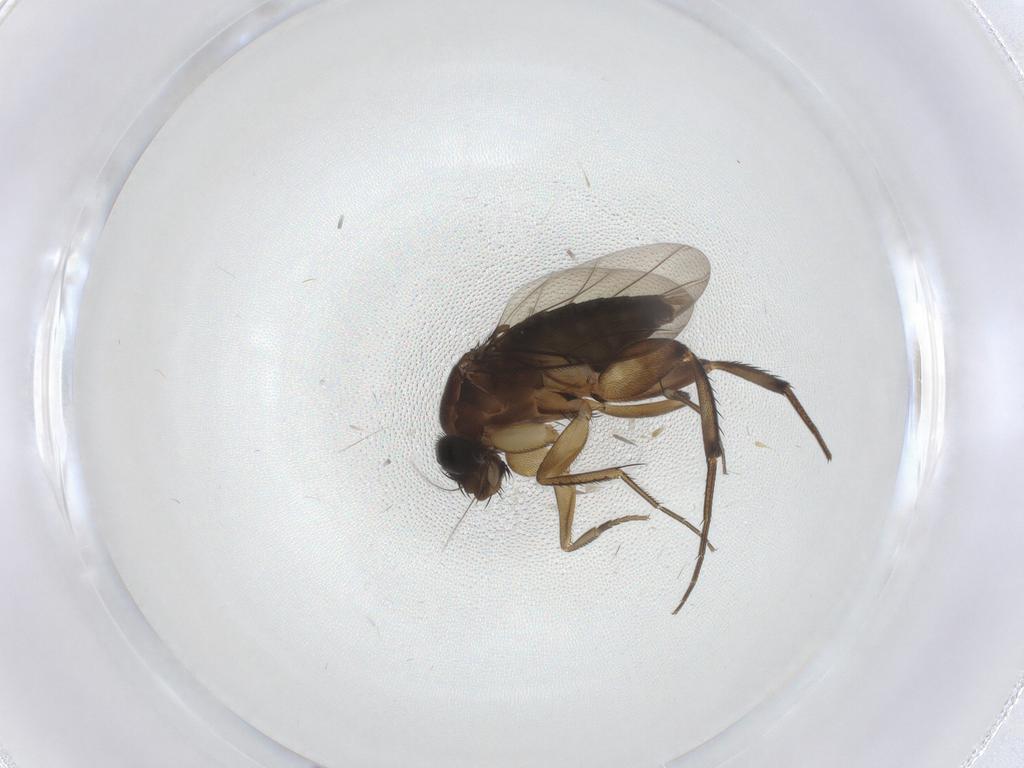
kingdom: Animalia
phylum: Arthropoda
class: Insecta
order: Diptera
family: Phoridae
